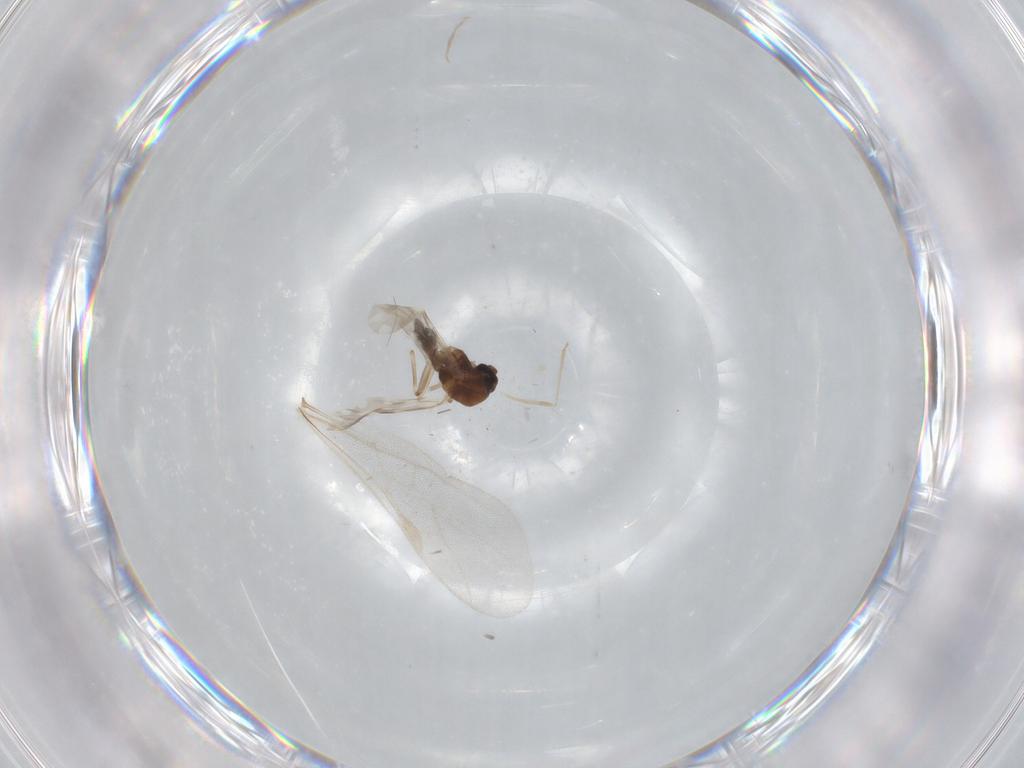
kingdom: Animalia
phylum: Arthropoda
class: Insecta
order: Diptera
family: Ceratopogonidae
